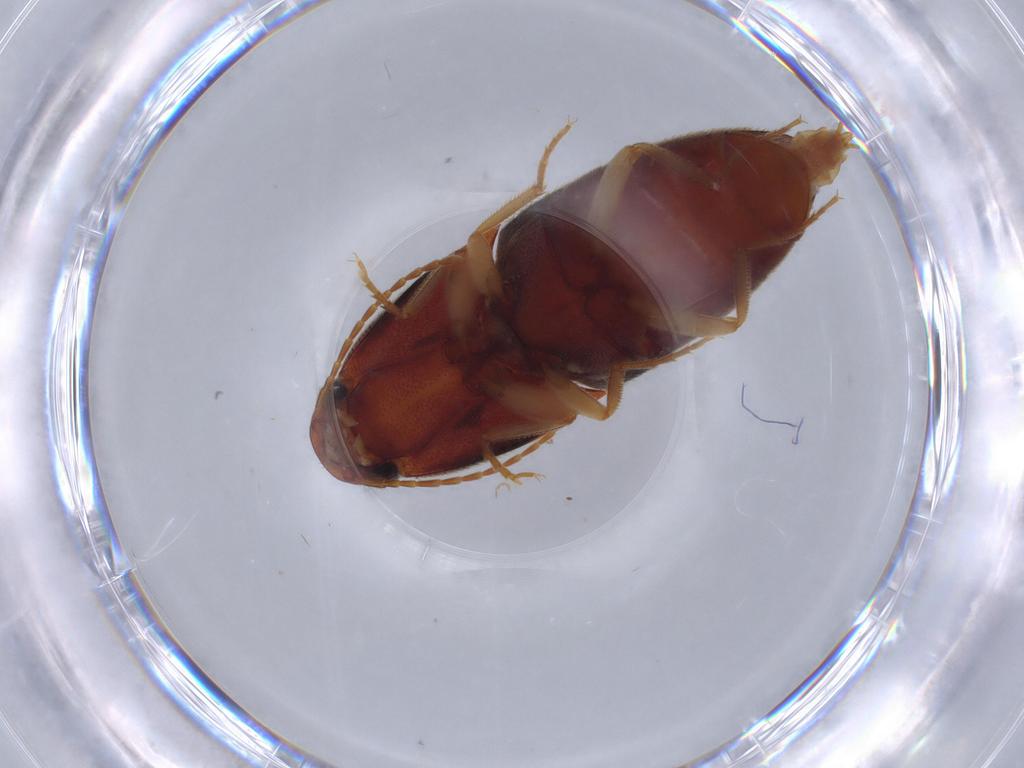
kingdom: Animalia
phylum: Arthropoda
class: Insecta
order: Coleoptera
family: Elateridae
